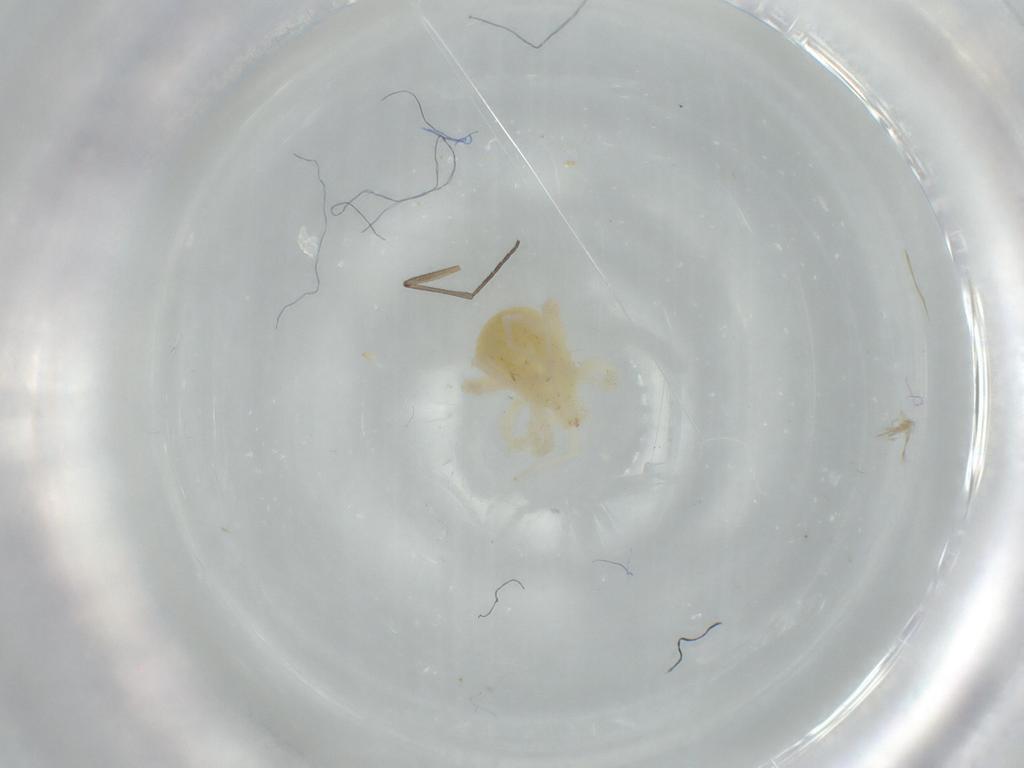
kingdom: Animalia
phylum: Arthropoda
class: Arachnida
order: Trombidiformes
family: Anystidae
